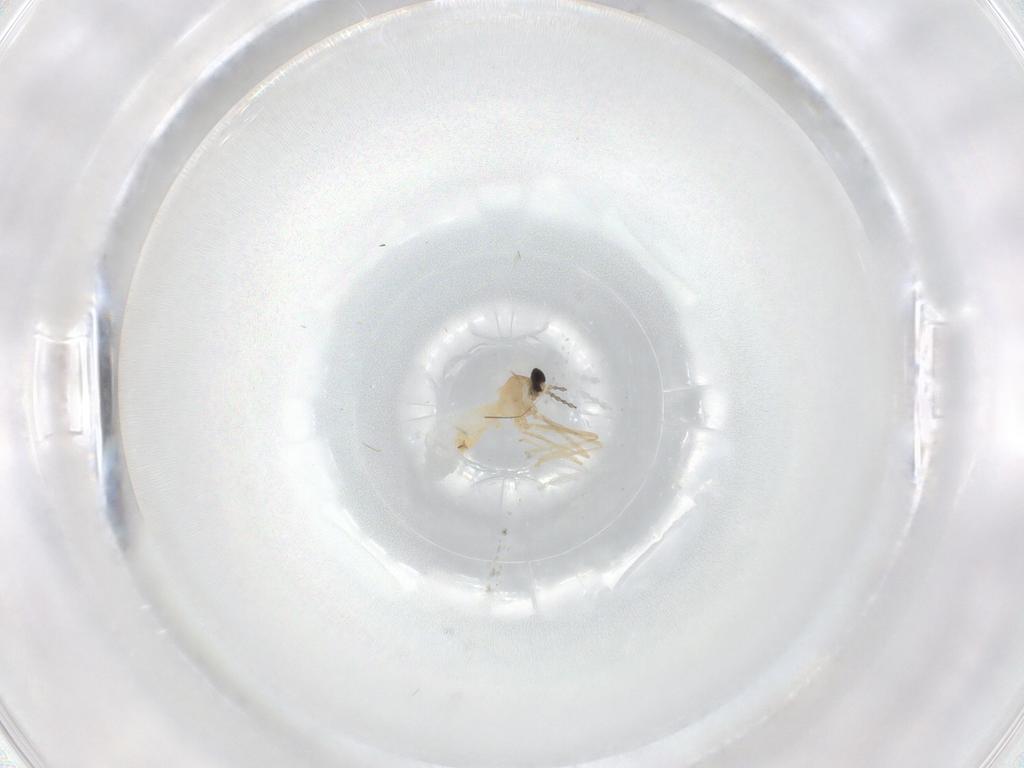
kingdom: Animalia
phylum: Arthropoda
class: Insecta
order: Diptera
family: Cecidomyiidae
